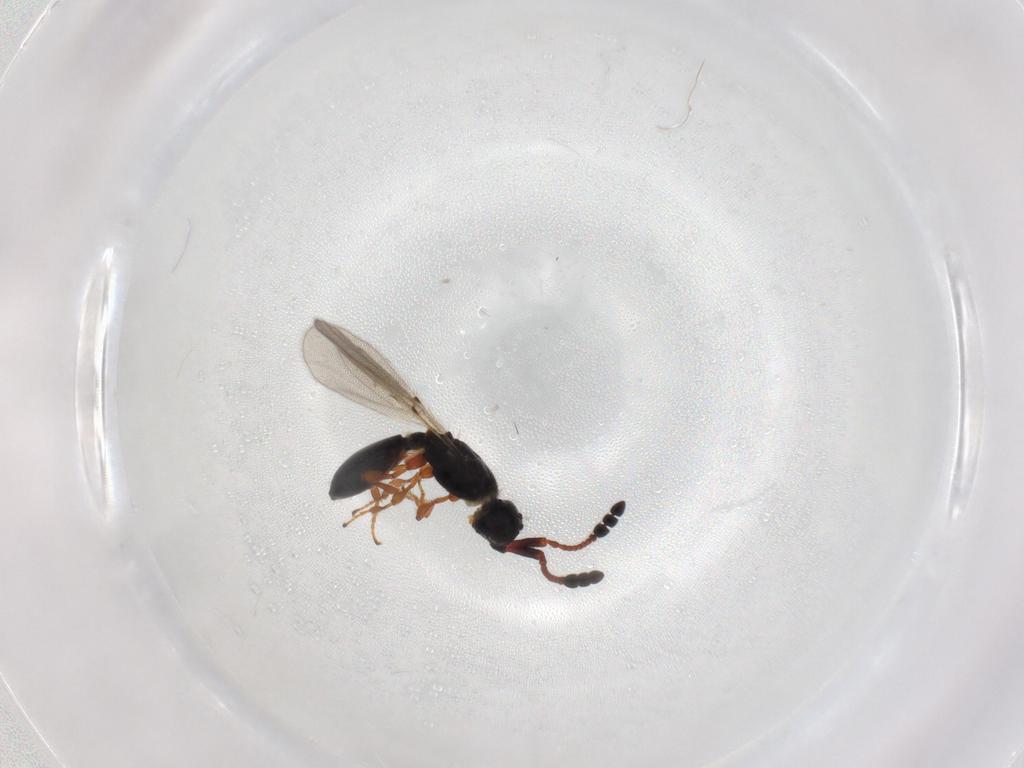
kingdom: Animalia
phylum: Arthropoda
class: Insecta
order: Hymenoptera
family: Diapriidae
